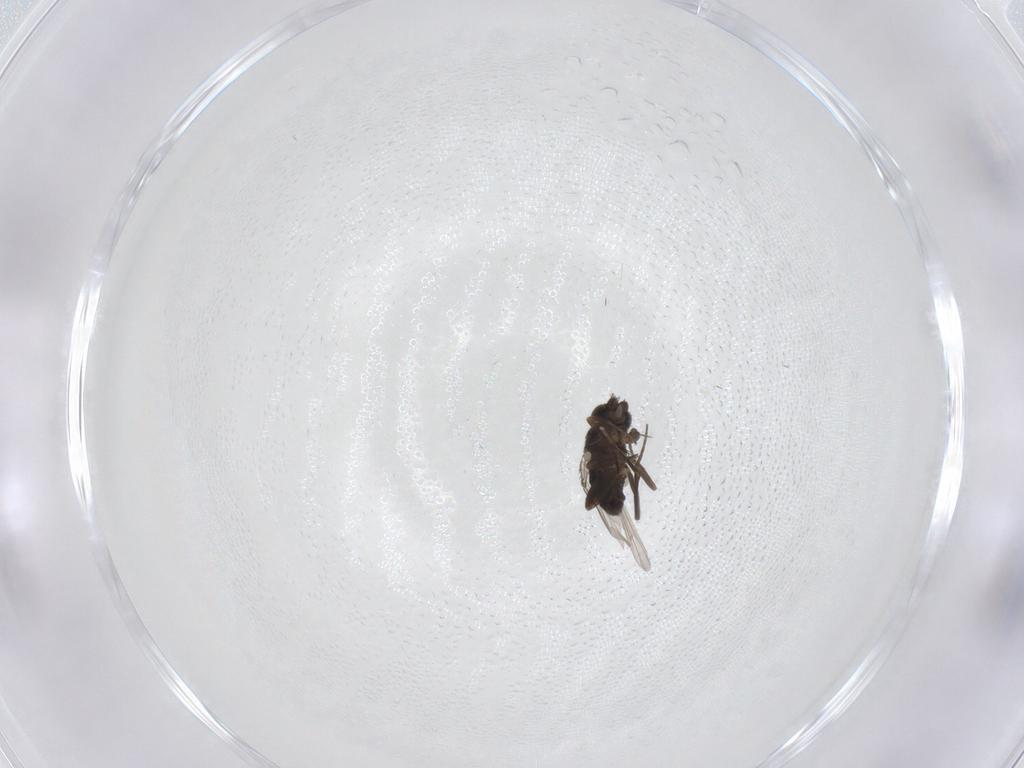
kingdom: Animalia
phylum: Arthropoda
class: Insecta
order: Diptera
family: Phoridae
